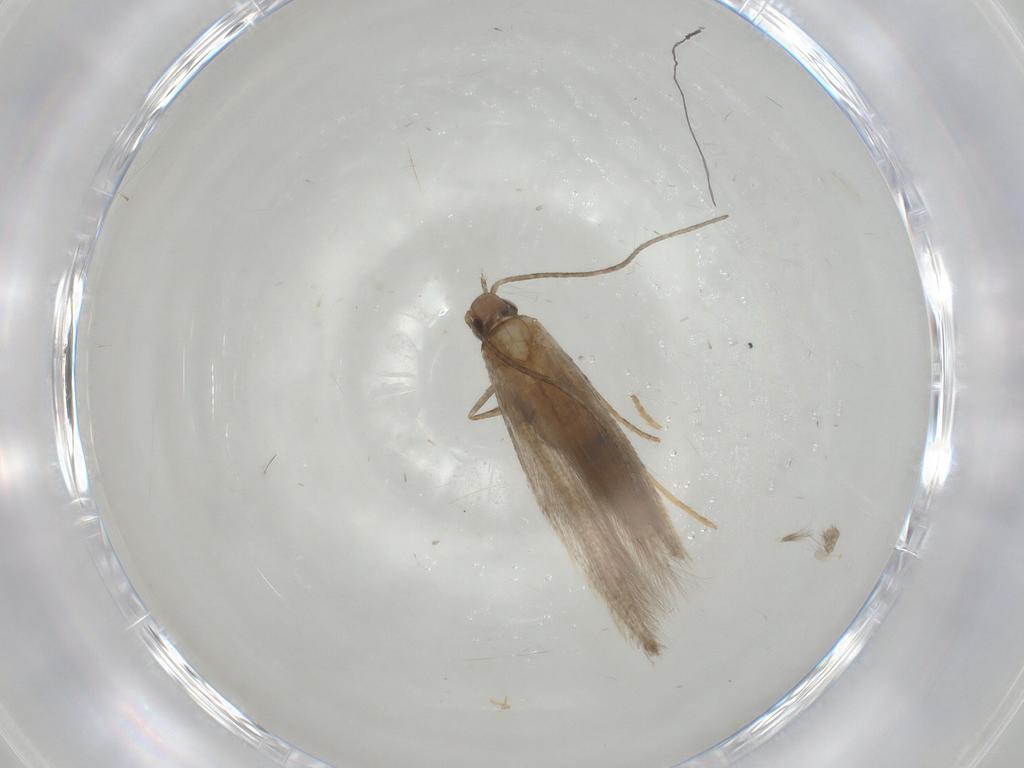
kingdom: Animalia
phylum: Arthropoda
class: Insecta
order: Lepidoptera
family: Depressariidae
